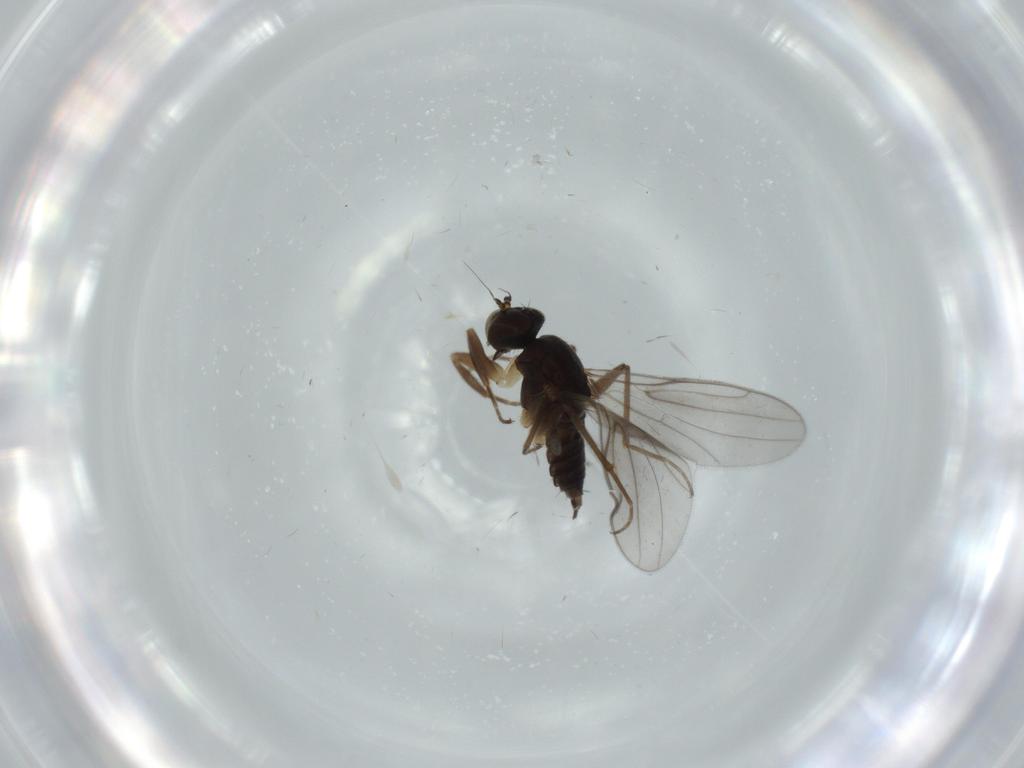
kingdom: Animalia
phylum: Arthropoda
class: Insecta
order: Diptera
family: Hybotidae
